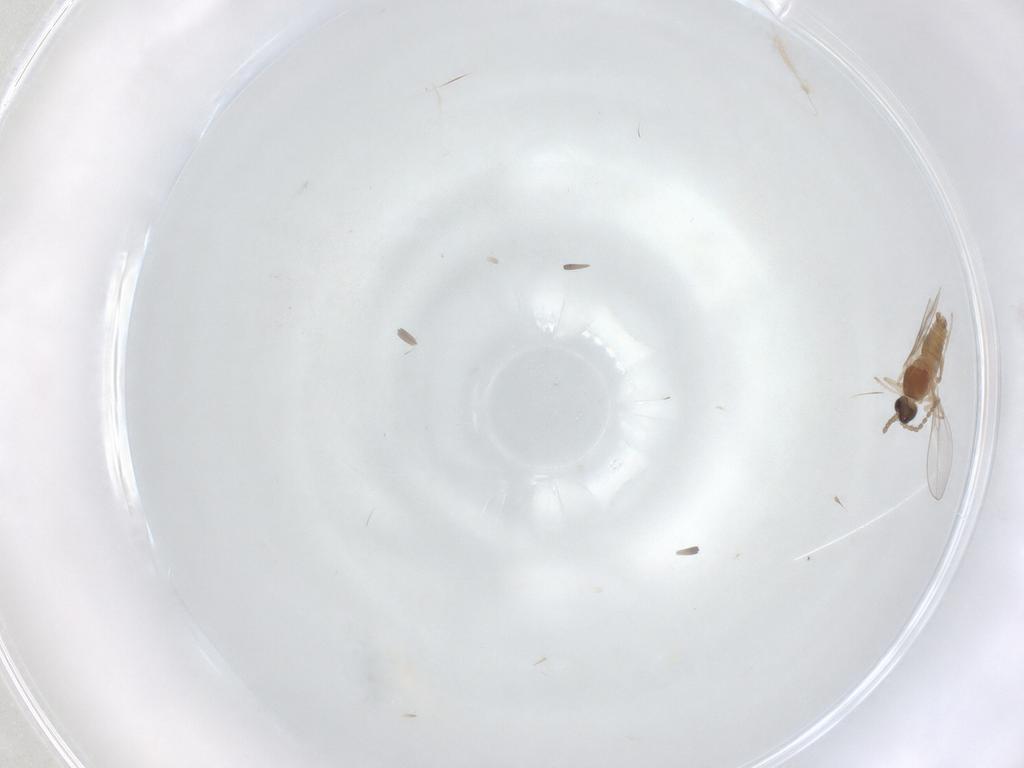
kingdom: Animalia
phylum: Arthropoda
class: Insecta
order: Diptera
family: Cecidomyiidae
